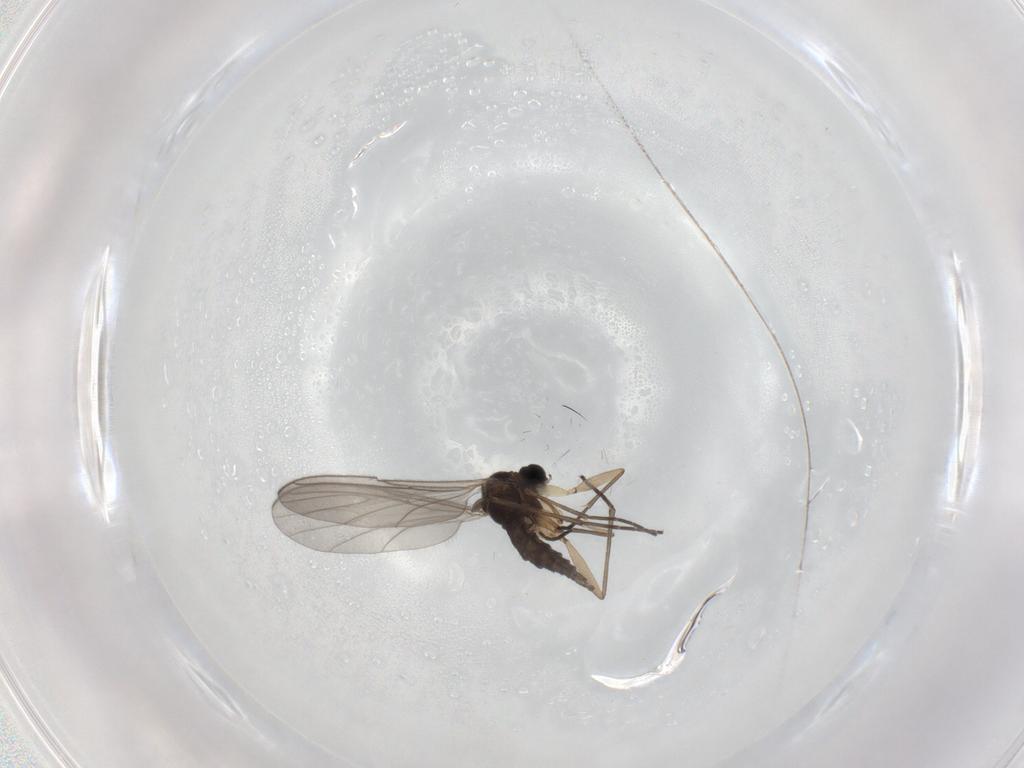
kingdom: Animalia
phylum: Arthropoda
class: Insecta
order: Diptera
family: Sciaridae
